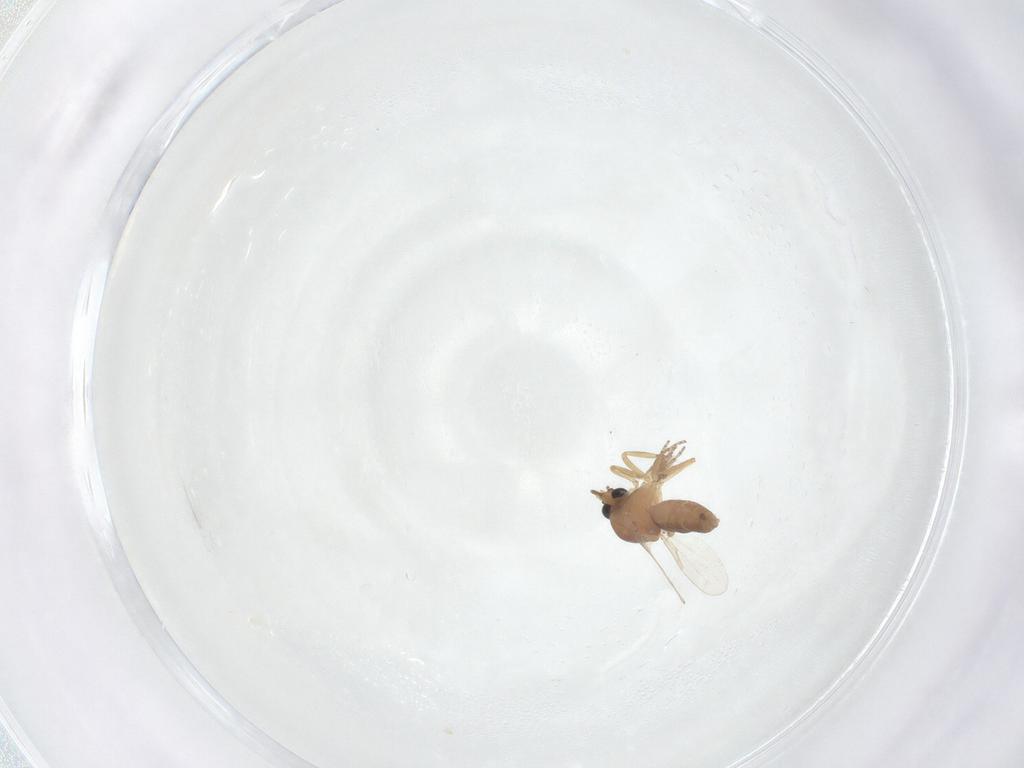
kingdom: Animalia
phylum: Arthropoda
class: Insecta
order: Diptera
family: Ceratopogonidae
